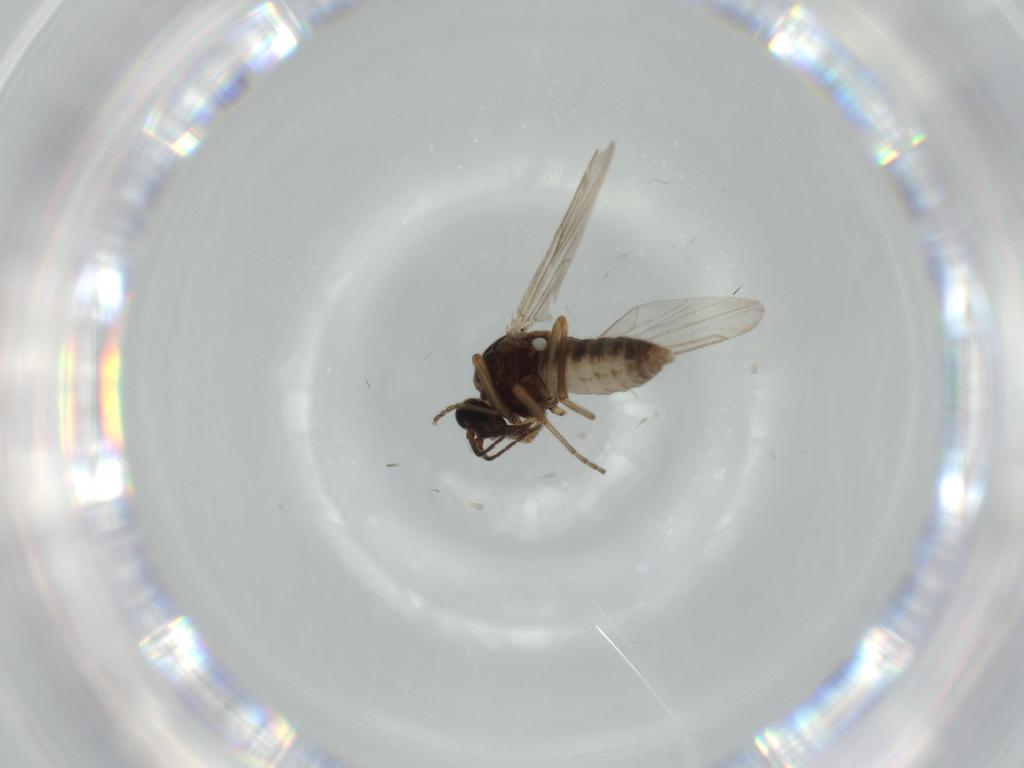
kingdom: Animalia
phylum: Arthropoda
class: Insecta
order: Diptera
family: Ceratopogonidae
